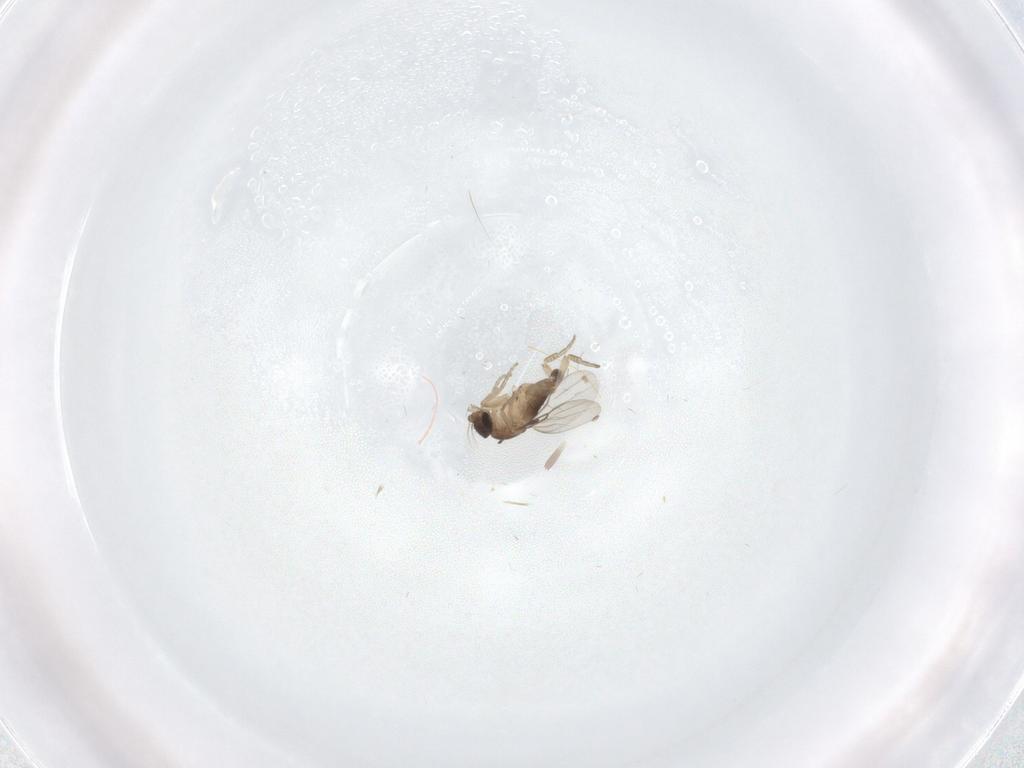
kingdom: Animalia
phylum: Arthropoda
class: Insecta
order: Diptera
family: Phoridae
